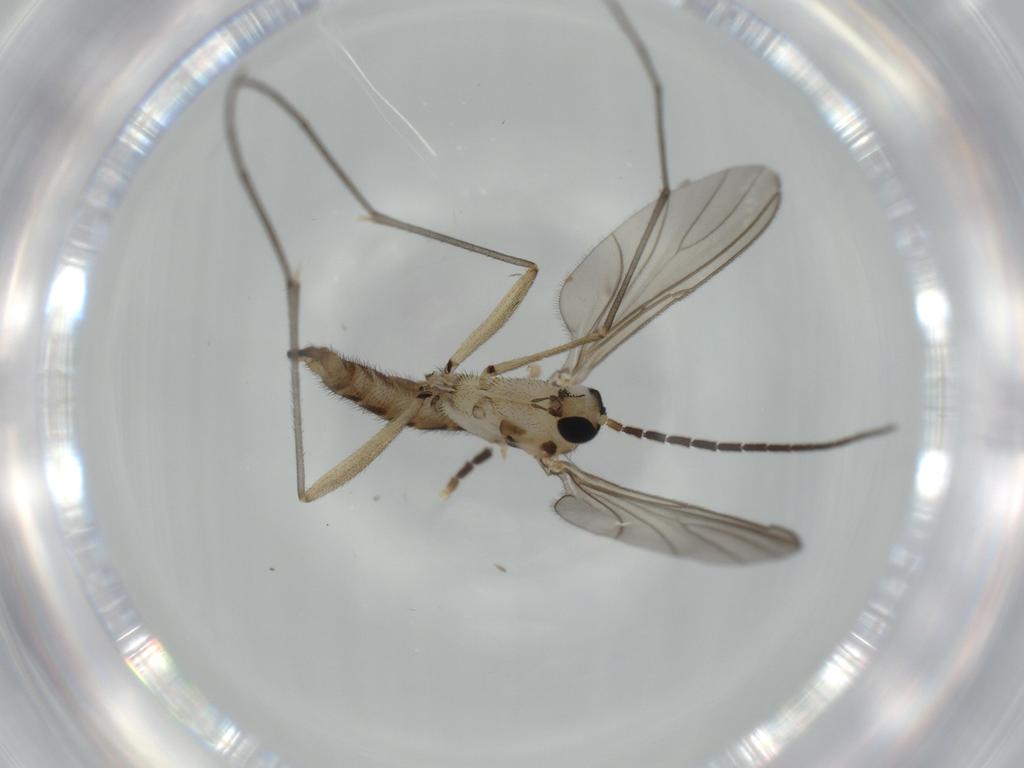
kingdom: Animalia
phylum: Arthropoda
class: Insecta
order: Diptera
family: Sciaridae
